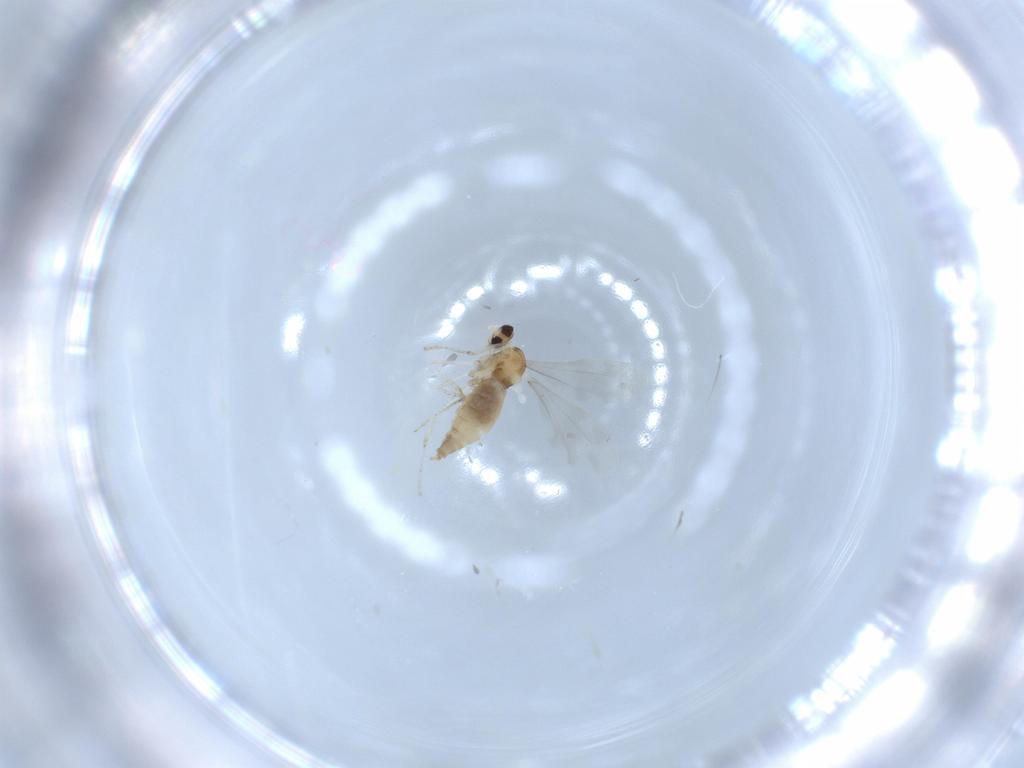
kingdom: Animalia
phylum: Arthropoda
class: Insecta
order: Diptera
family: Cecidomyiidae
